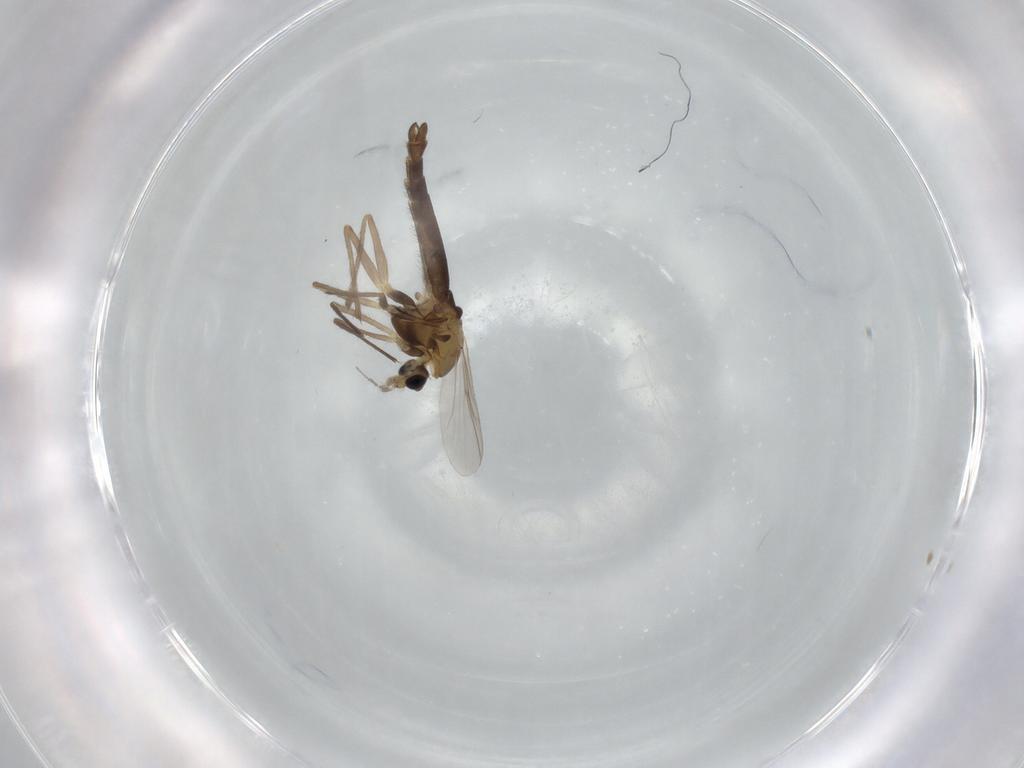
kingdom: Animalia
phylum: Arthropoda
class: Insecta
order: Diptera
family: Chironomidae
